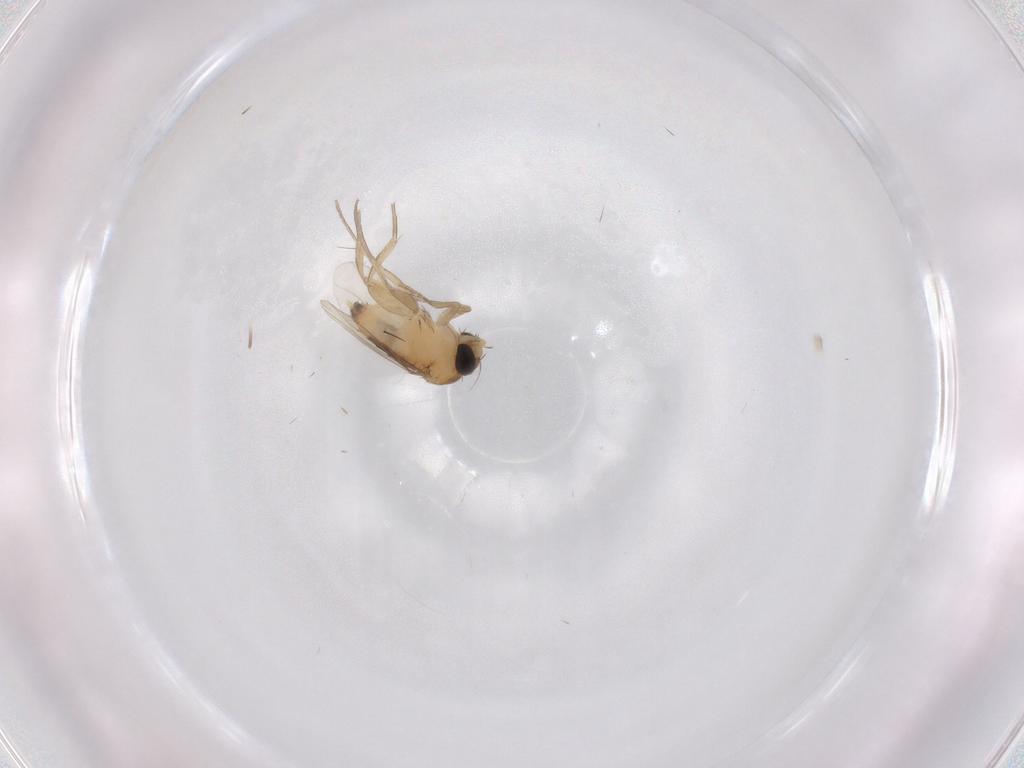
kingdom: Animalia
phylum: Arthropoda
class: Insecta
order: Diptera
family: Phoridae
